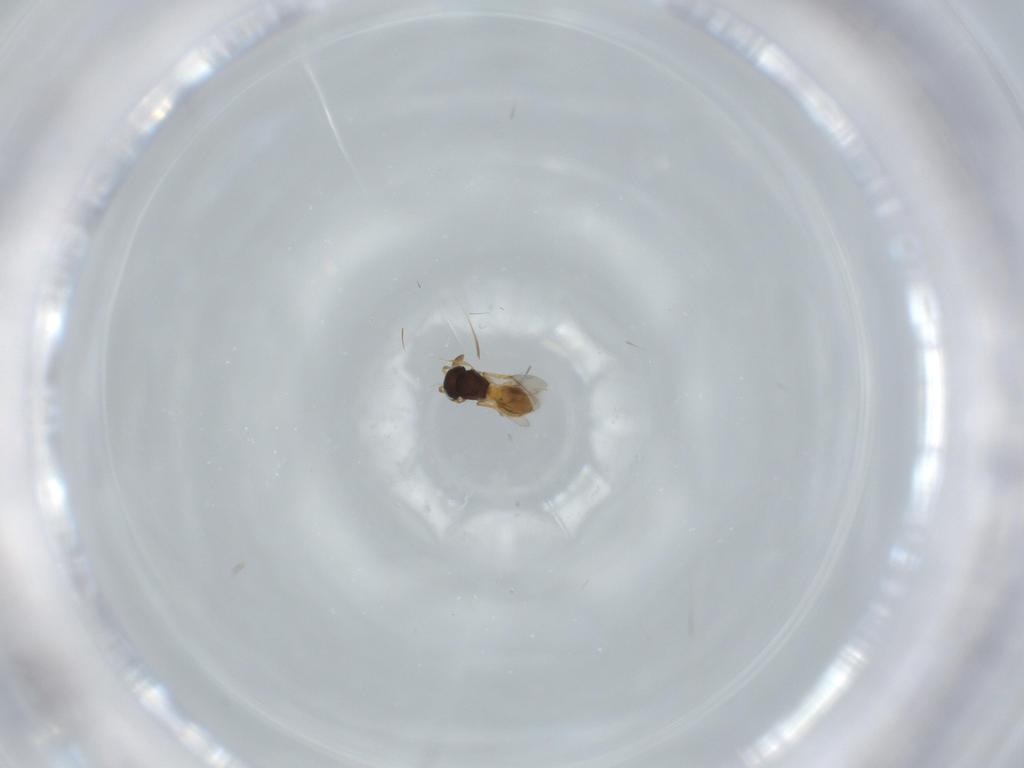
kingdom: Animalia
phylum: Arthropoda
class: Insecta
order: Hymenoptera
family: Scelionidae
